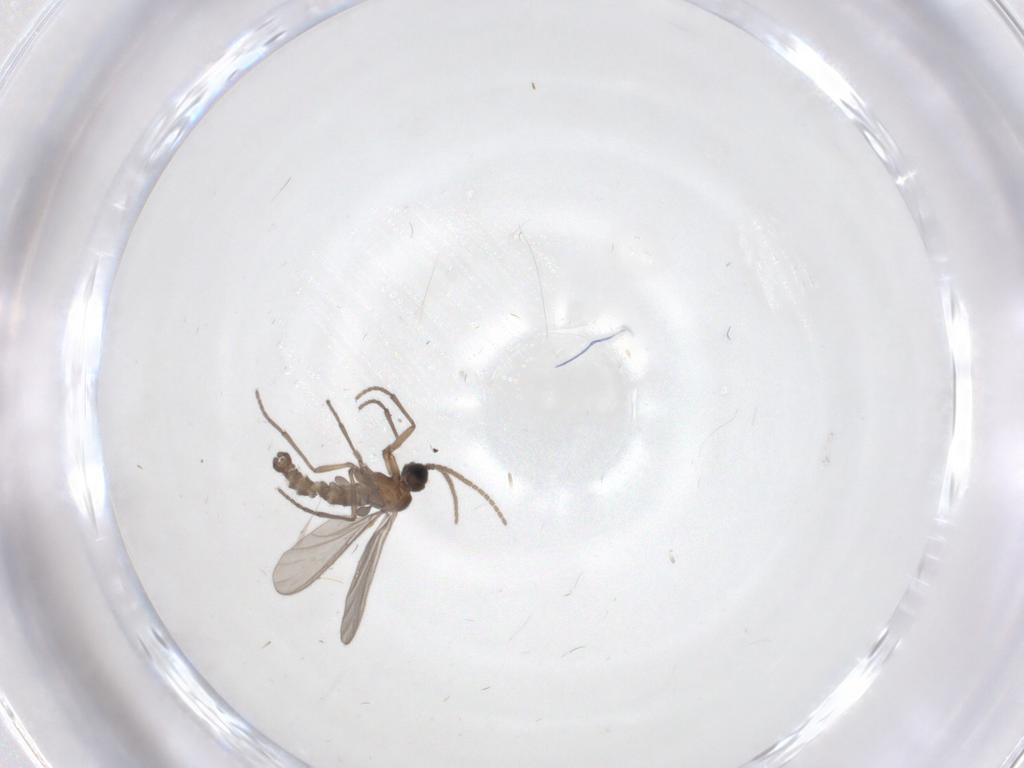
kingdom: Animalia
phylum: Arthropoda
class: Insecta
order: Diptera
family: Sciaridae
